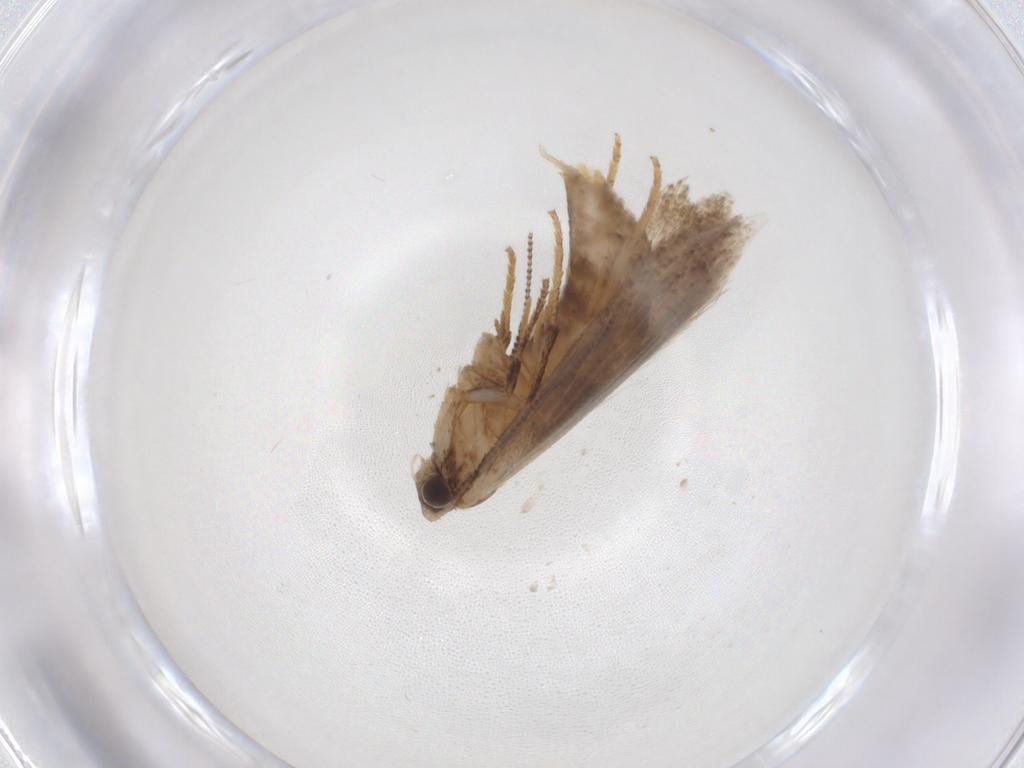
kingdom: Animalia
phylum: Arthropoda
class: Insecta
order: Lepidoptera
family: Nepticulidae
